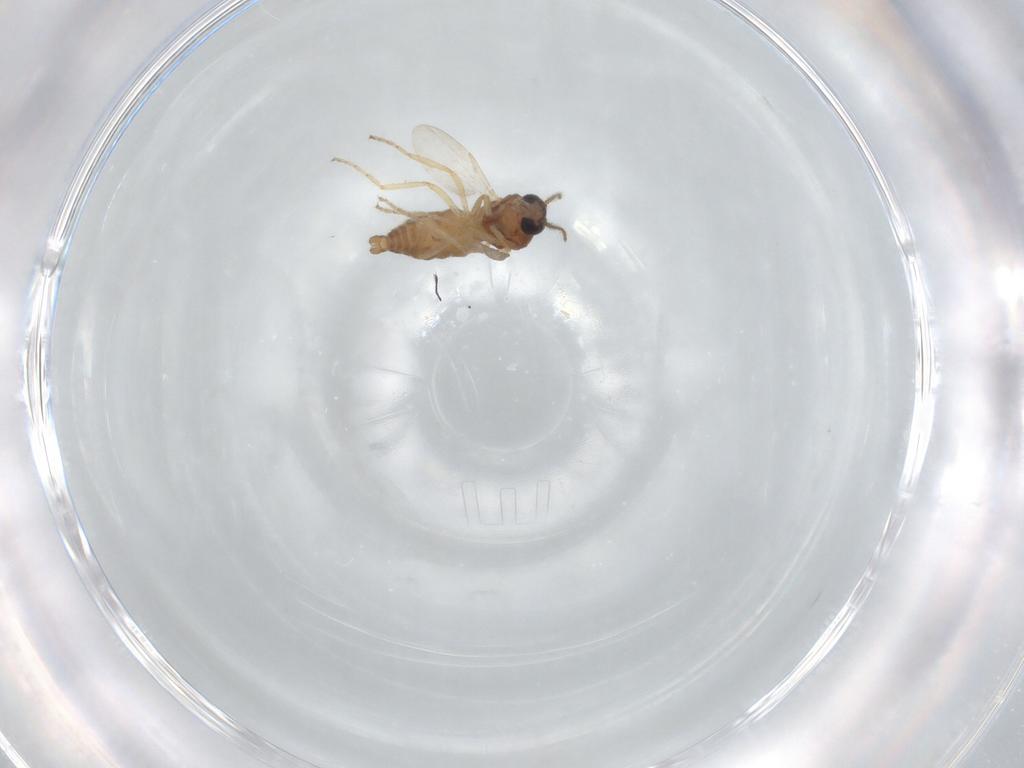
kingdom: Animalia
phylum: Arthropoda
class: Insecta
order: Diptera
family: Ceratopogonidae
